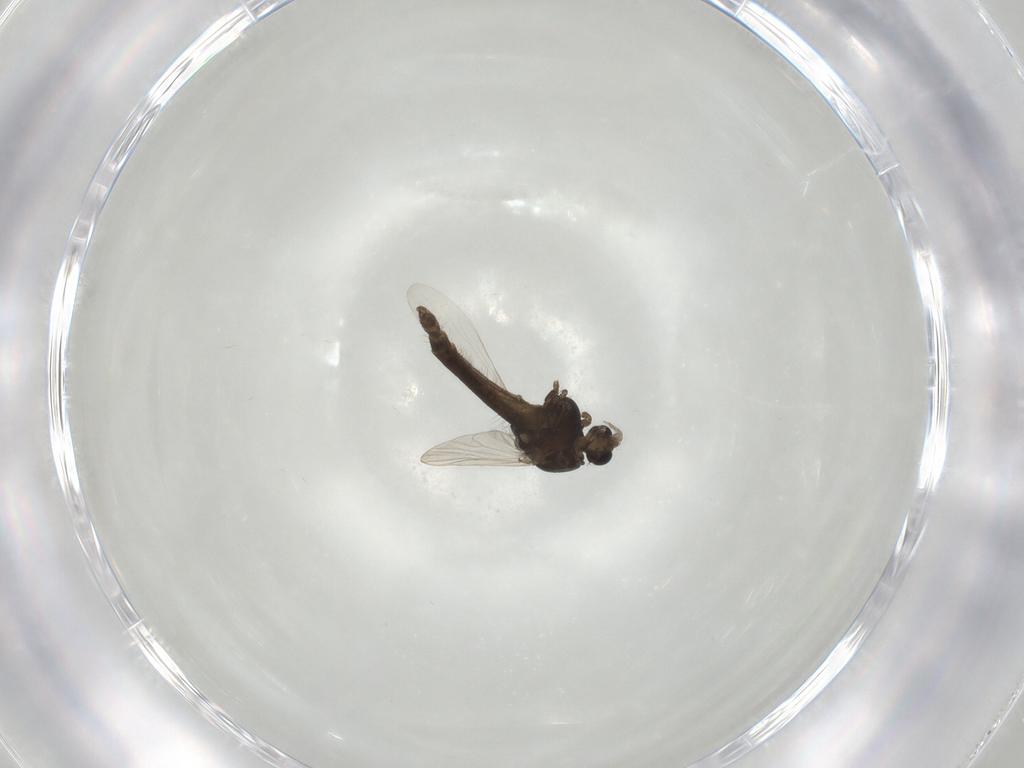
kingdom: Animalia
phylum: Arthropoda
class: Insecta
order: Diptera
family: Chironomidae
